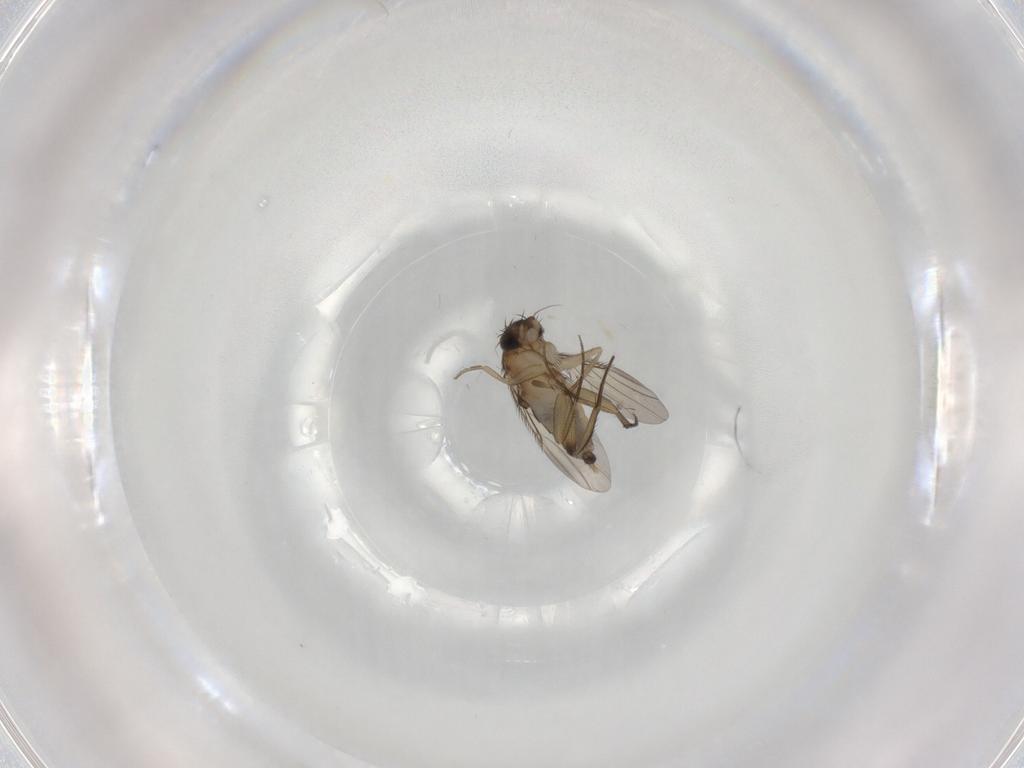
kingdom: Animalia
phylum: Arthropoda
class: Insecta
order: Diptera
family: Phoridae
